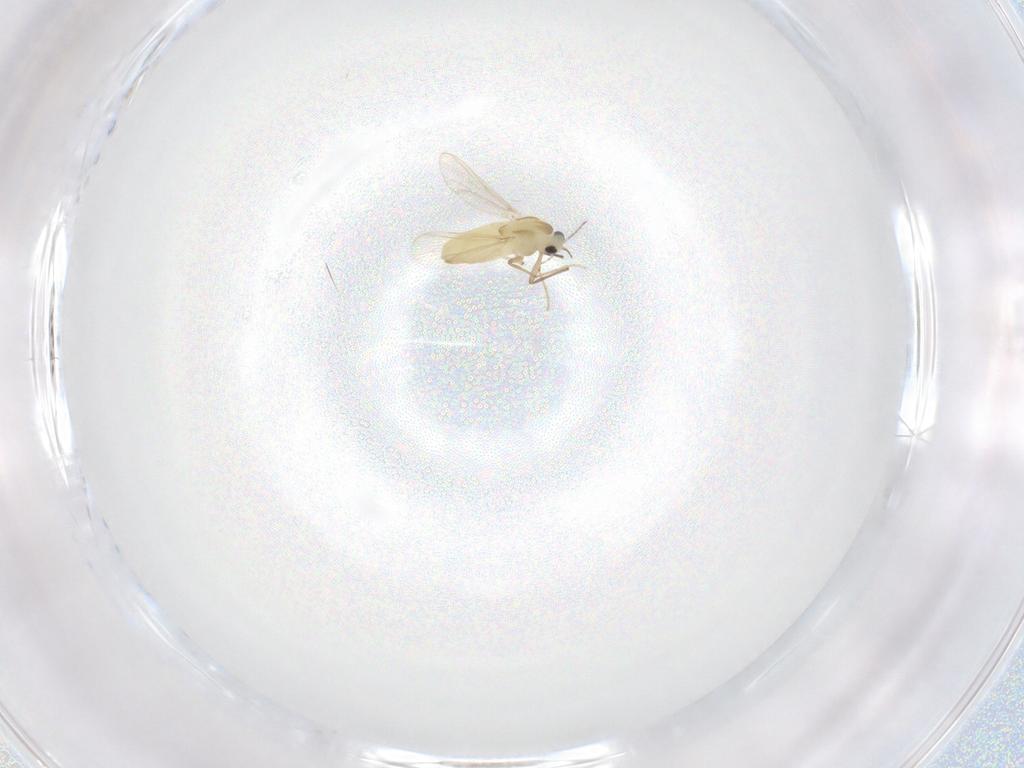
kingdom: Animalia
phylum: Arthropoda
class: Insecta
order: Diptera
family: Chironomidae
